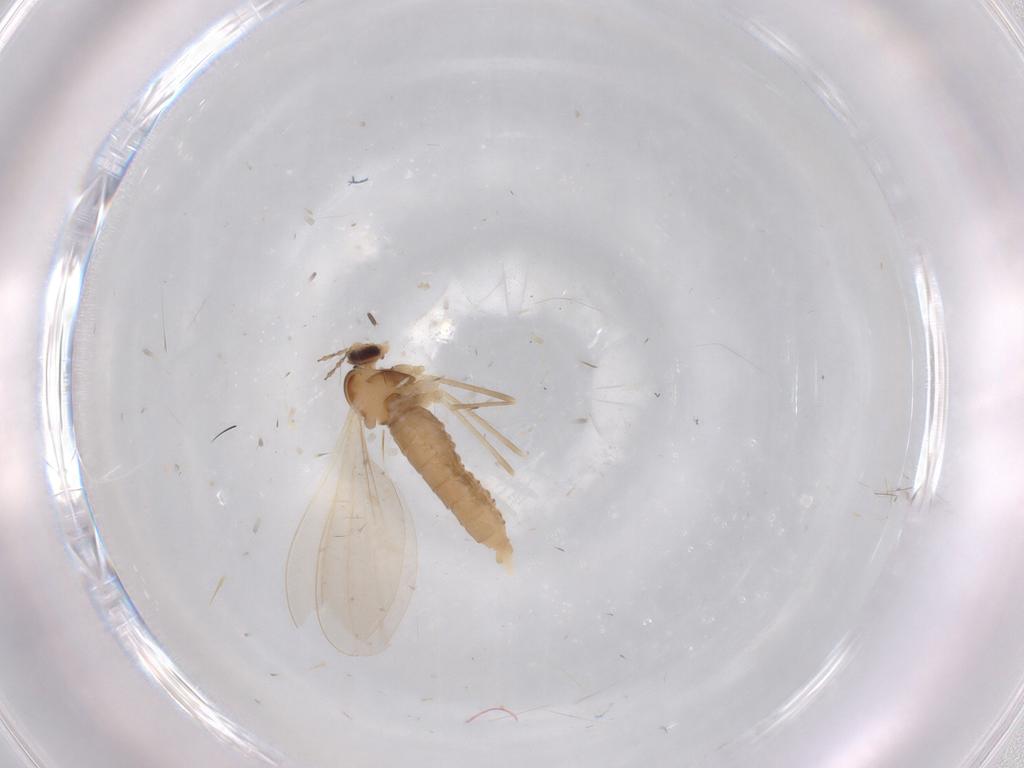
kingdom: Animalia
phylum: Arthropoda
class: Insecta
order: Diptera
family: Cecidomyiidae
